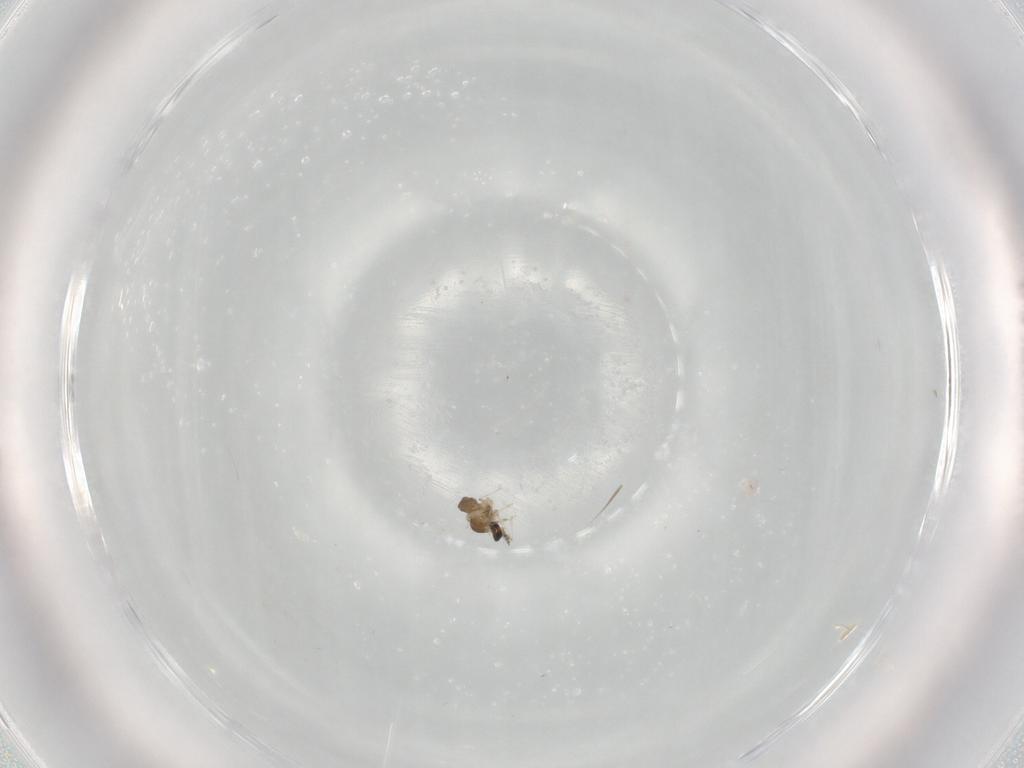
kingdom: Animalia
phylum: Arthropoda
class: Insecta
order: Diptera
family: Cecidomyiidae
